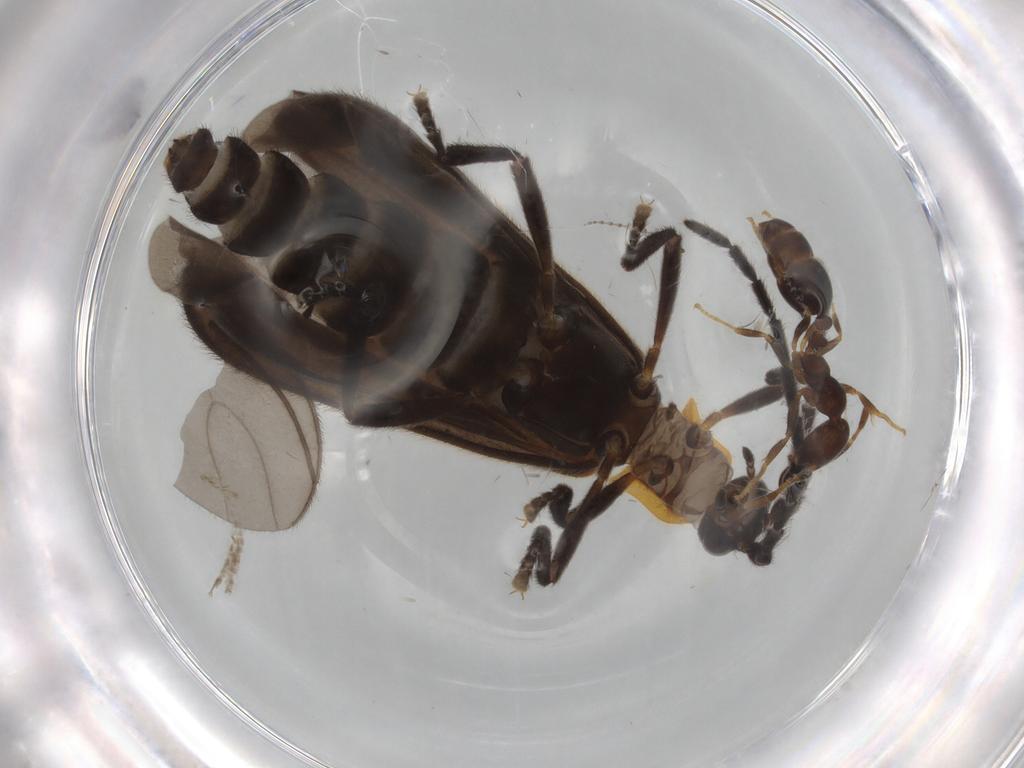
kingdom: Animalia
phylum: Arthropoda
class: Insecta
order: Coleoptera
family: Lycidae
